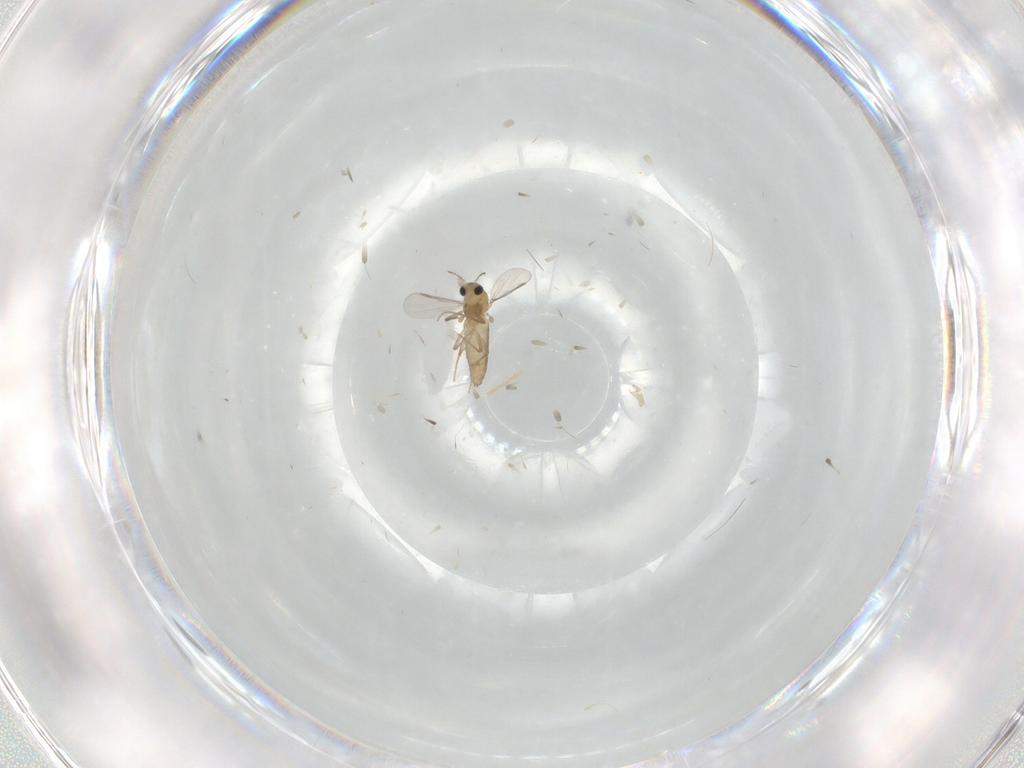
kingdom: Animalia
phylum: Arthropoda
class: Insecta
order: Diptera
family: Chironomidae
